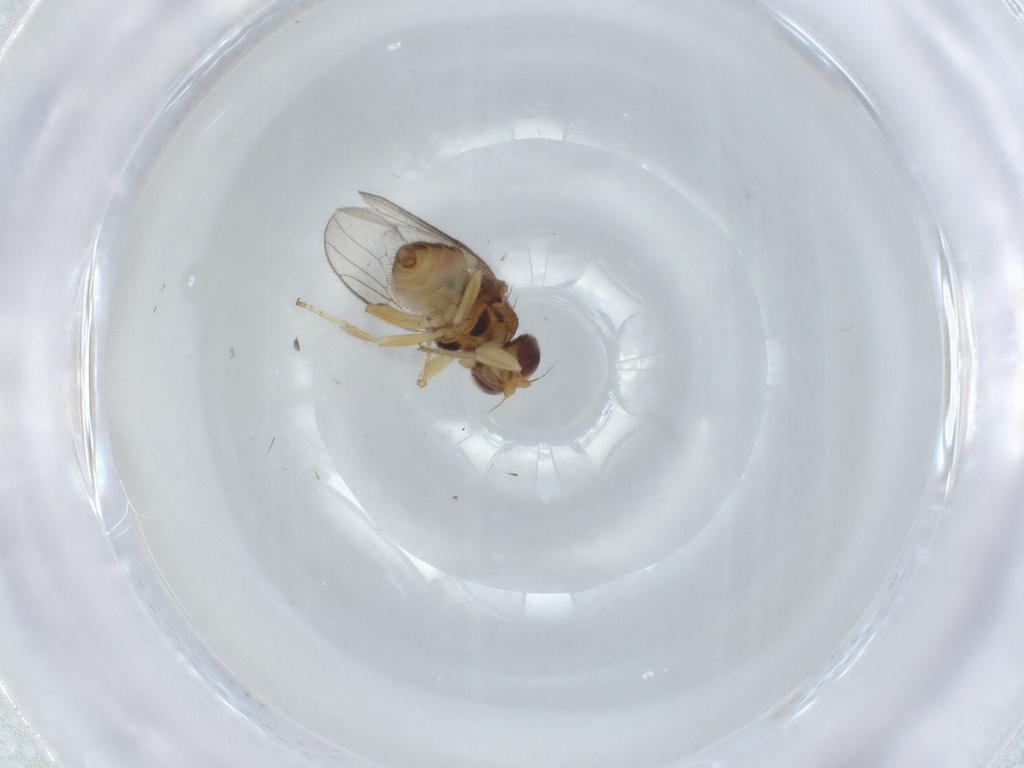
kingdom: Animalia
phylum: Arthropoda
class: Insecta
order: Diptera
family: Chloropidae
